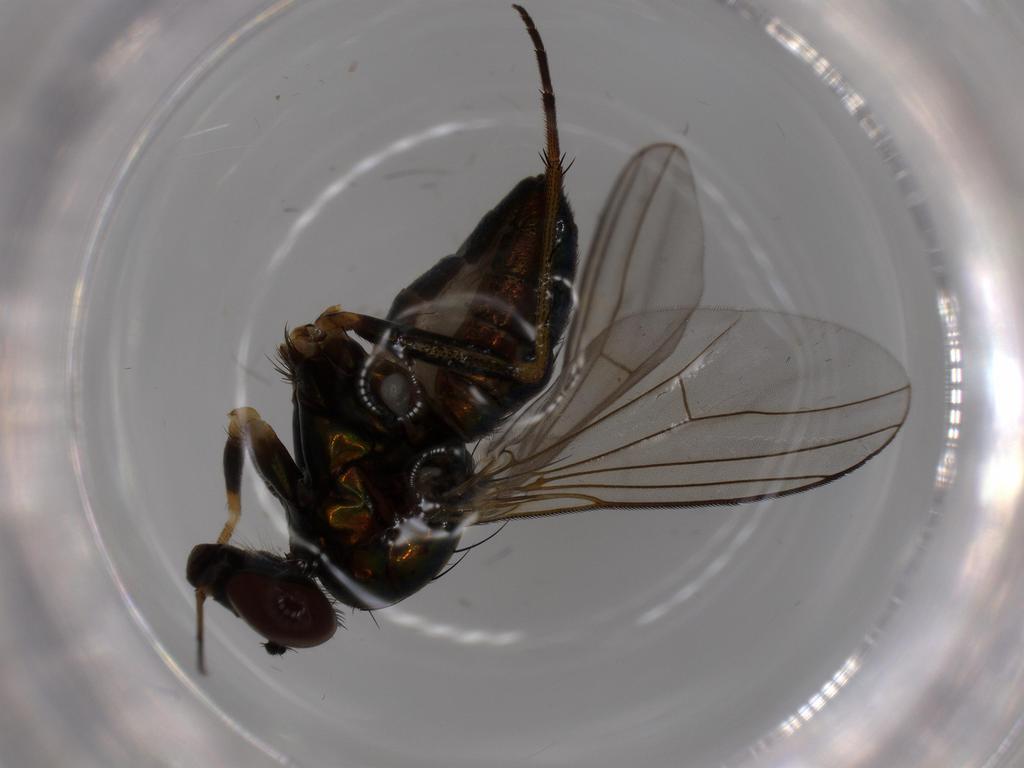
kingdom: Animalia
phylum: Arthropoda
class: Insecta
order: Diptera
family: Dolichopodidae
